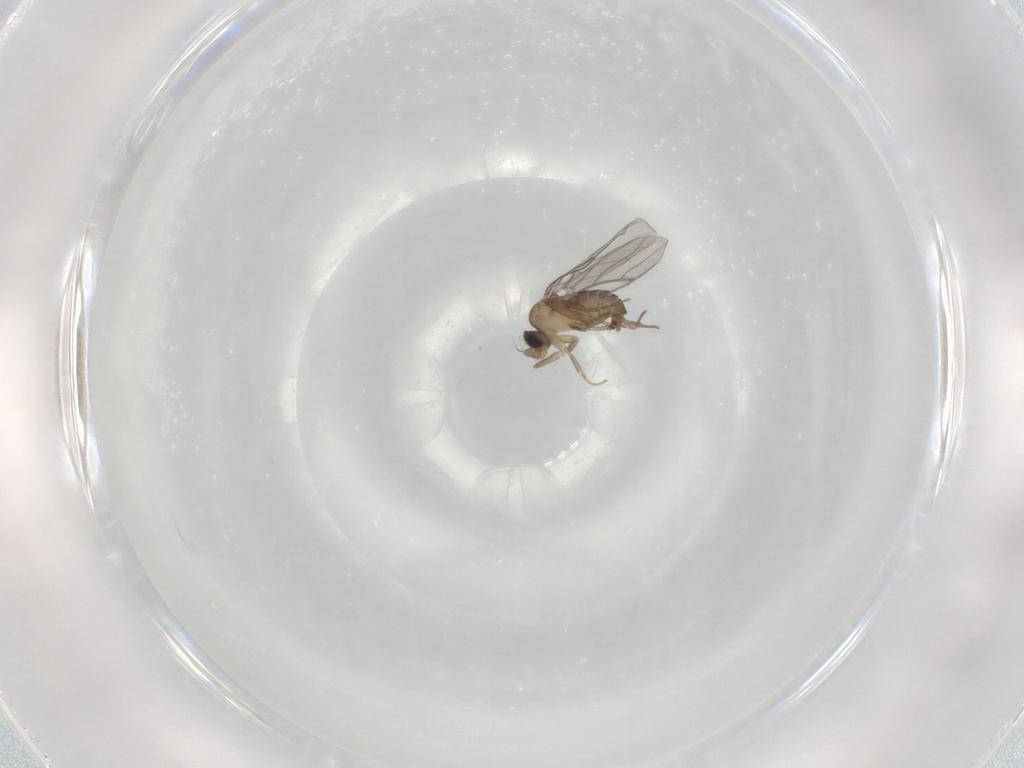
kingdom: Animalia
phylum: Arthropoda
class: Insecta
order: Diptera
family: Cecidomyiidae
